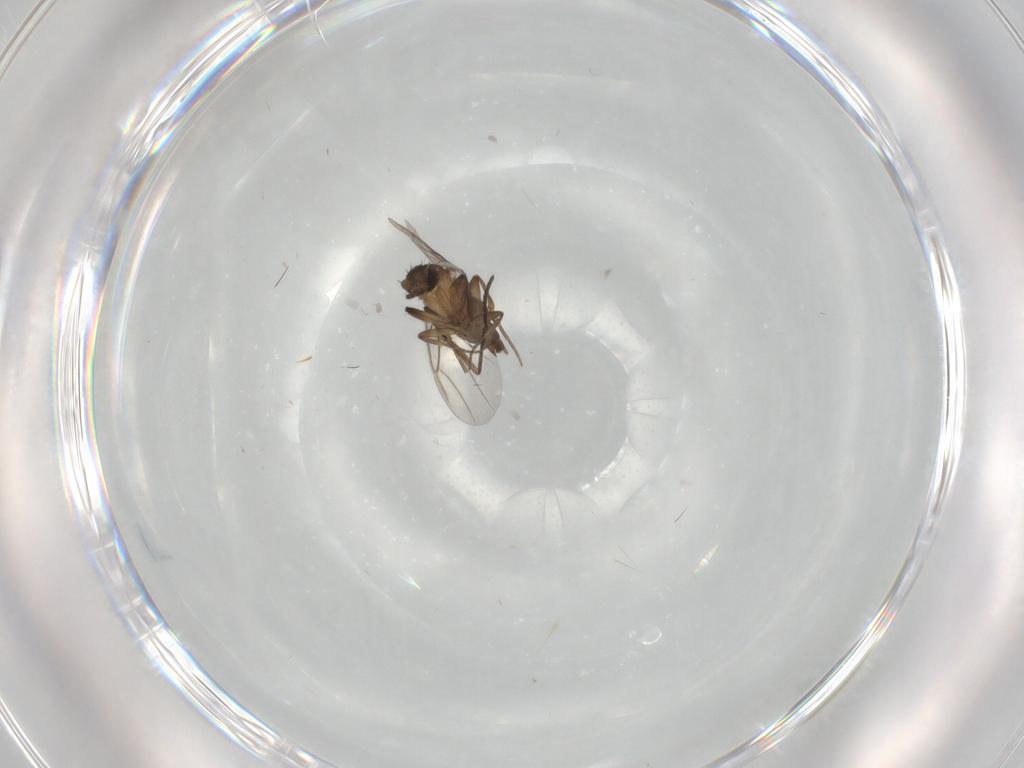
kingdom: Animalia
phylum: Arthropoda
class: Insecta
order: Diptera
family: Phoridae
